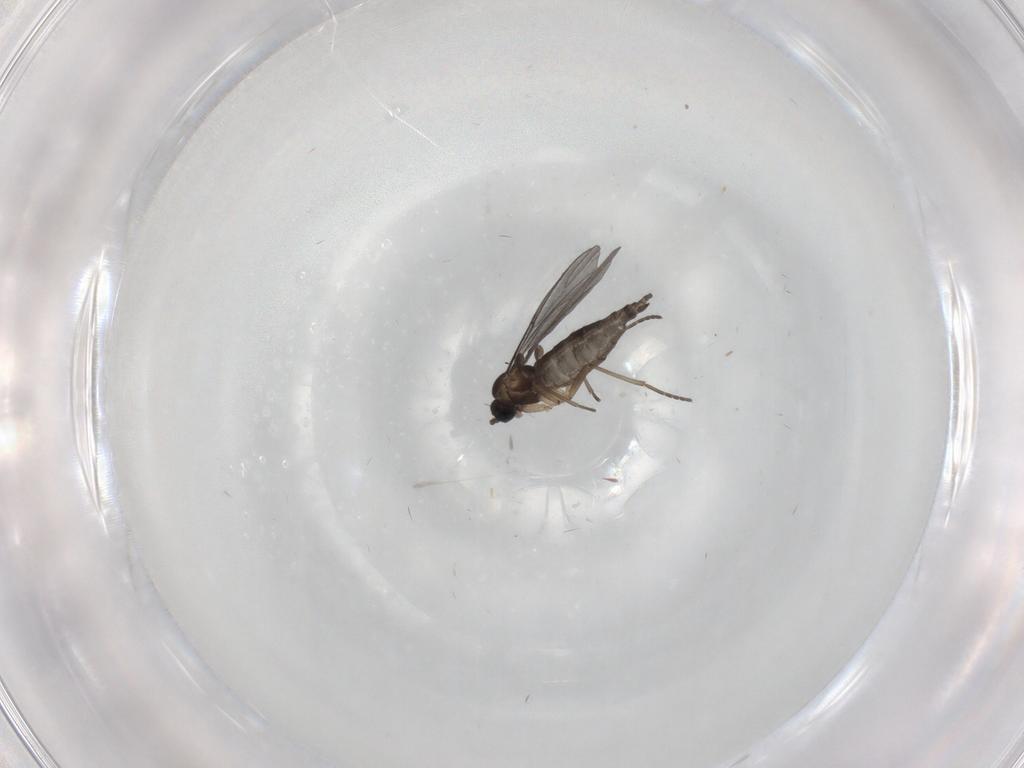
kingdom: Animalia
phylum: Arthropoda
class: Insecta
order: Diptera
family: Sciaridae
